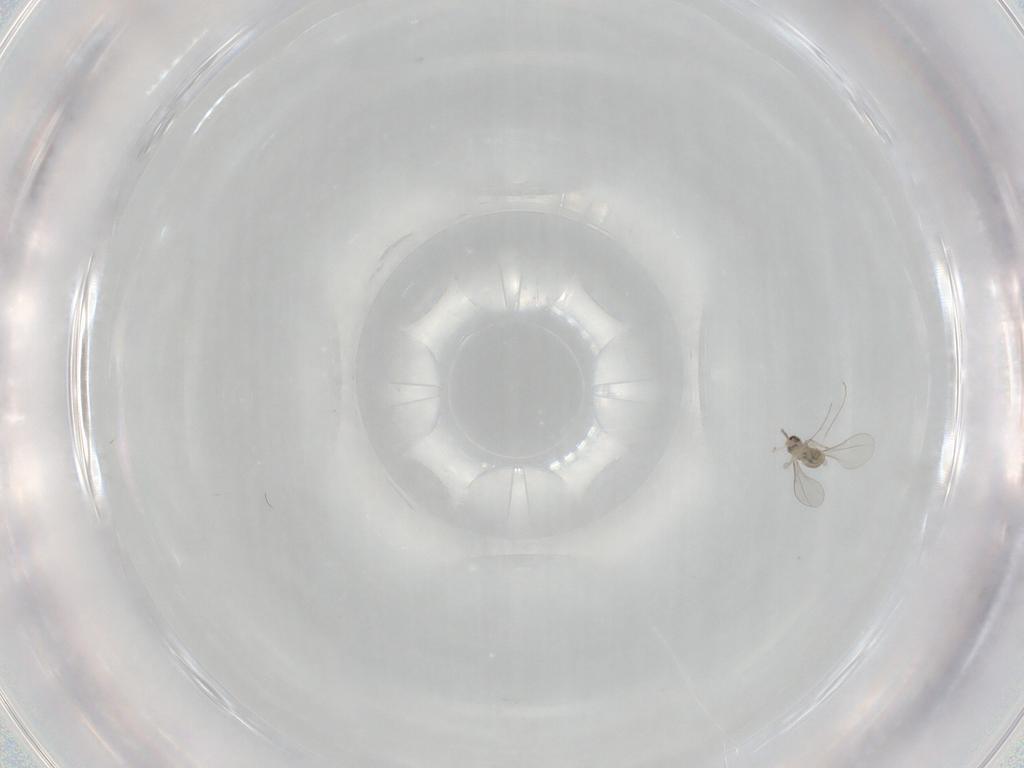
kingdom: Animalia
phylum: Arthropoda
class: Insecta
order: Diptera
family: Cecidomyiidae
